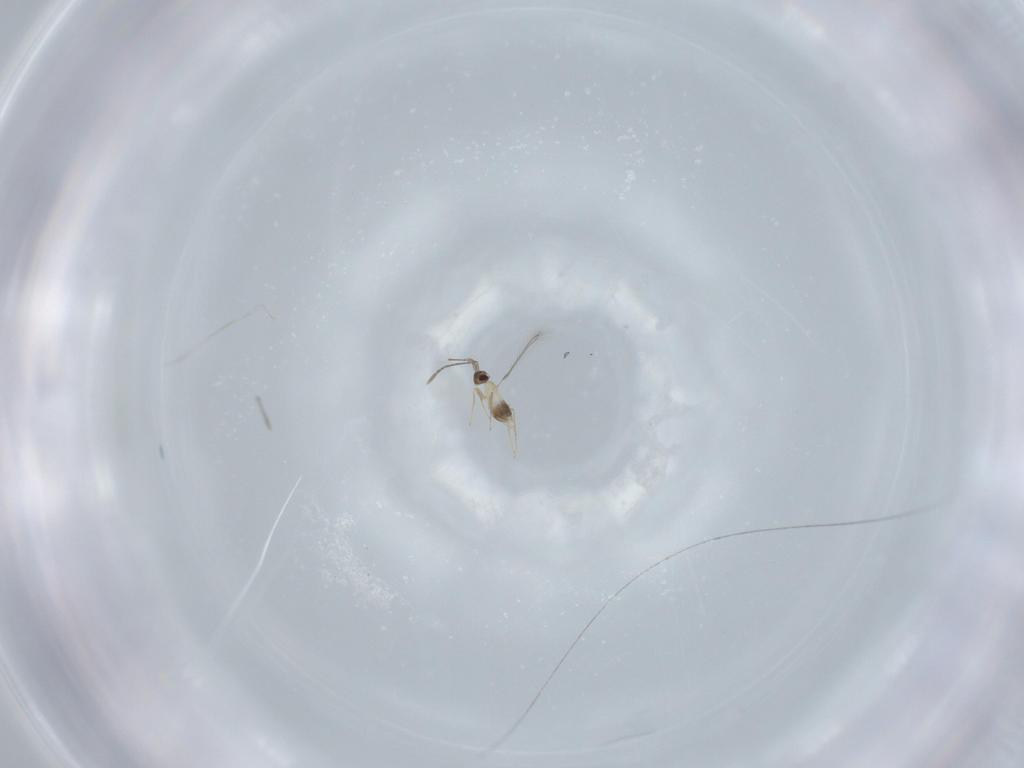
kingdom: Animalia
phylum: Arthropoda
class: Insecta
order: Hymenoptera
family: Mymaridae
